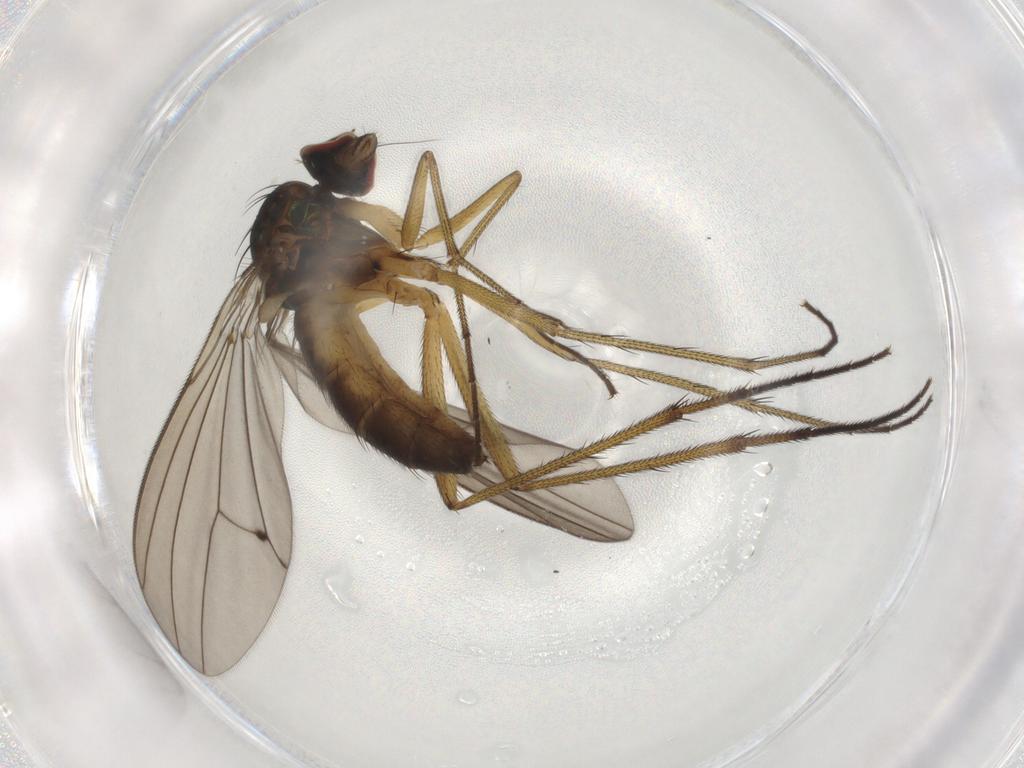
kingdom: Animalia
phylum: Arthropoda
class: Insecta
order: Diptera
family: Dolichopodidae
